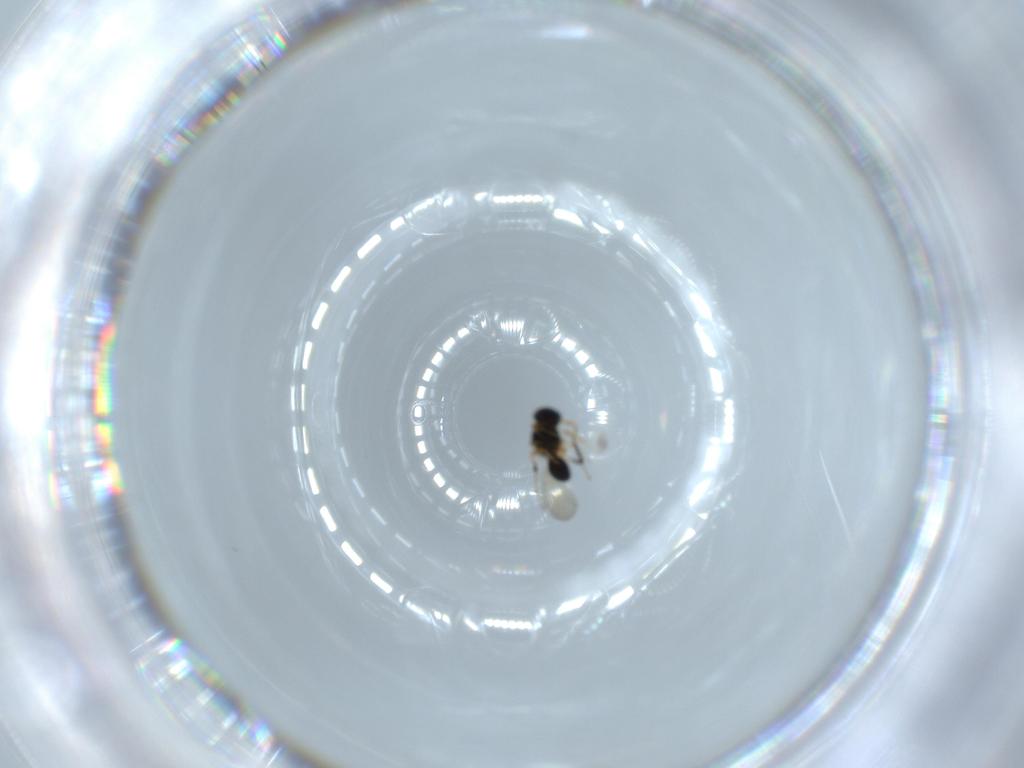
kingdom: Animalia
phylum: Arthropoda
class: Insecta
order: Hymenoptera
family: Platygastridae
